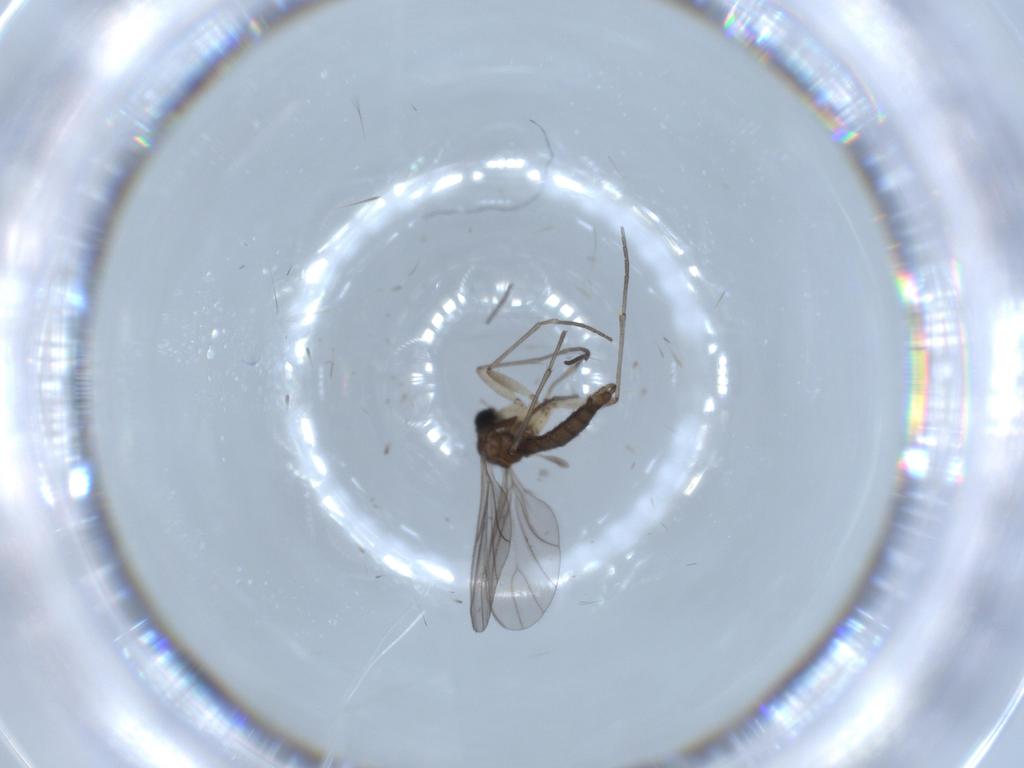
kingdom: Animalia
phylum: Arthropoda
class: Insecta
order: Diptera
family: Sciaridae
